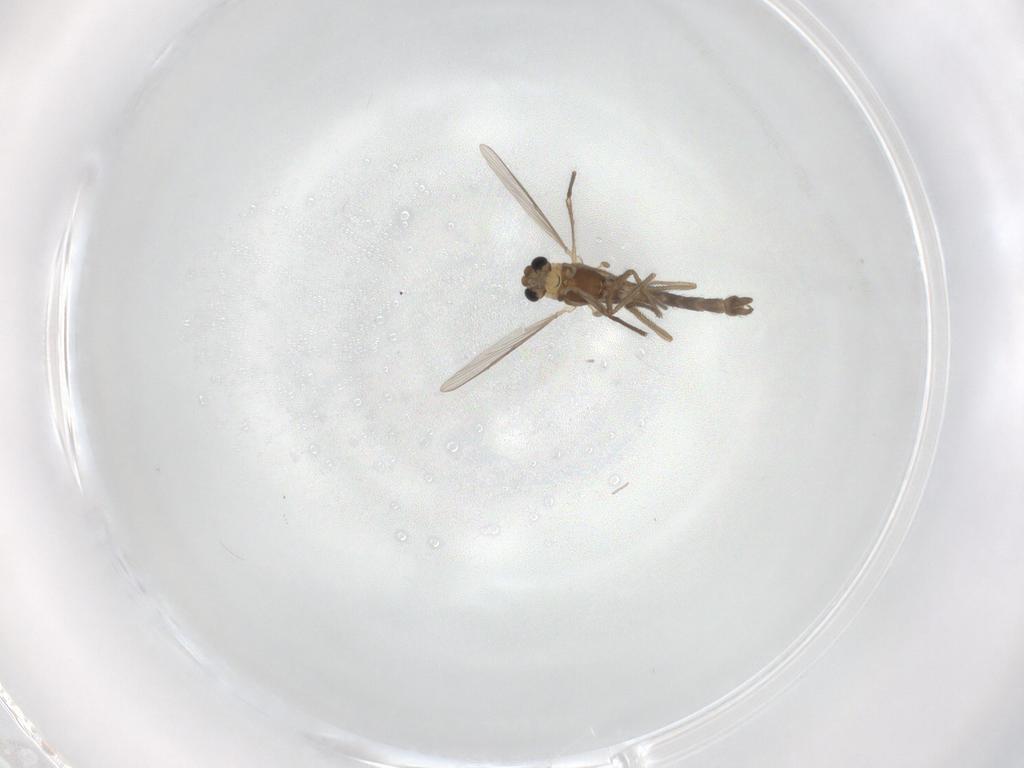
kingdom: Animalia
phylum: Arthropoda
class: Insecta
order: Diptera
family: Chironomidae
